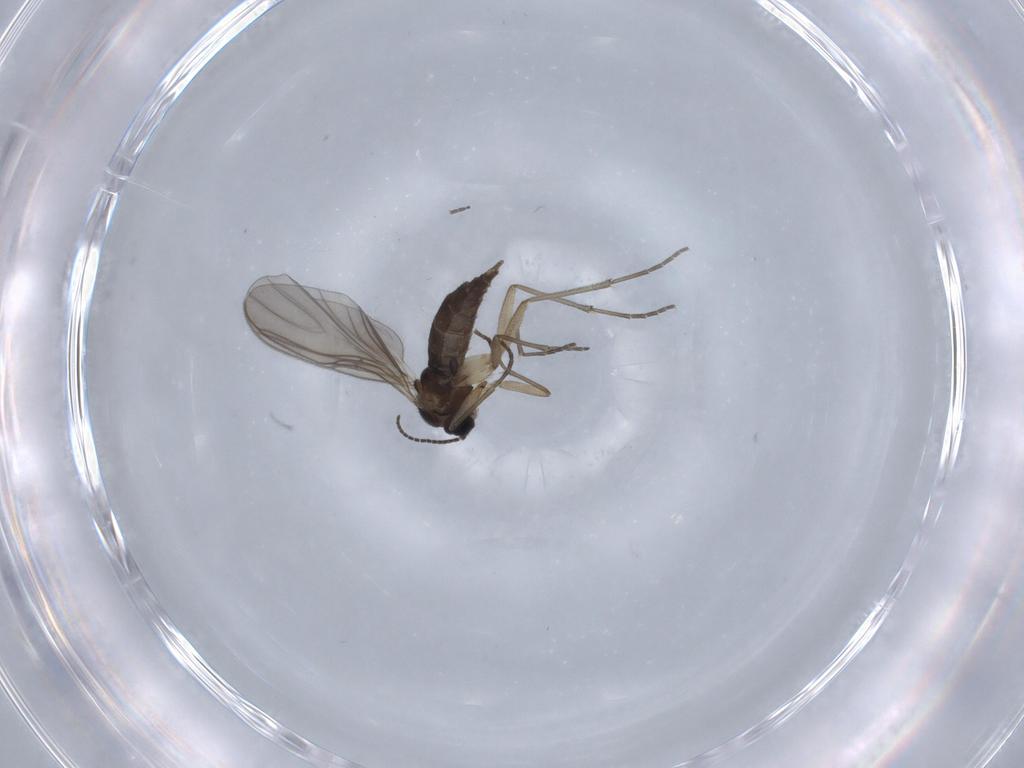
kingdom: Animalia
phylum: Arthropoda
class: Insecta
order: Diptera
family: Sciaridae
